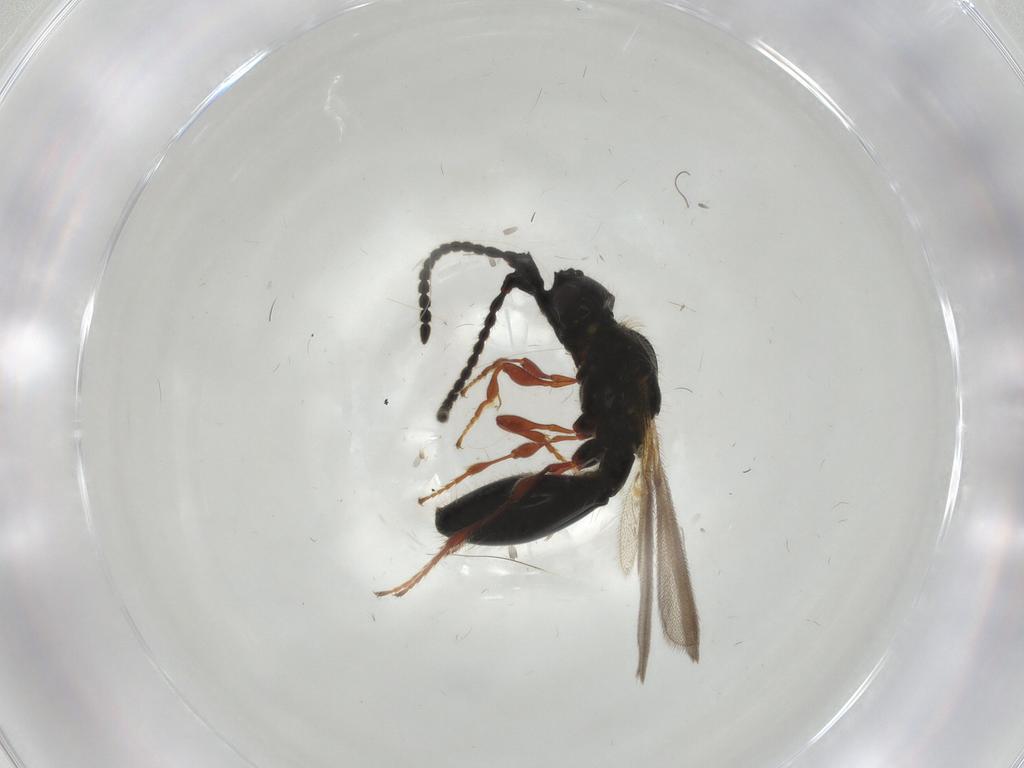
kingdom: Animalia
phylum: Arthropoda
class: Insecta
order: Hymenoptera
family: Diapriidae
